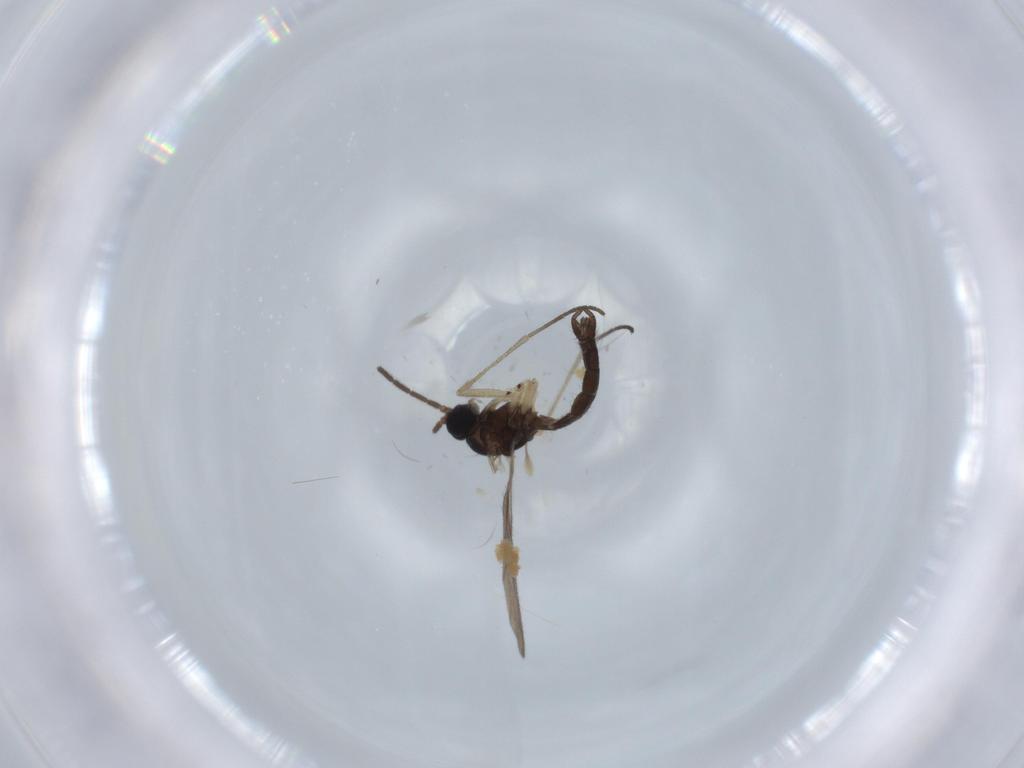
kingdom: Animalia
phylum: Arthropoda
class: Insecta
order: Diptera
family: Sciaridae
